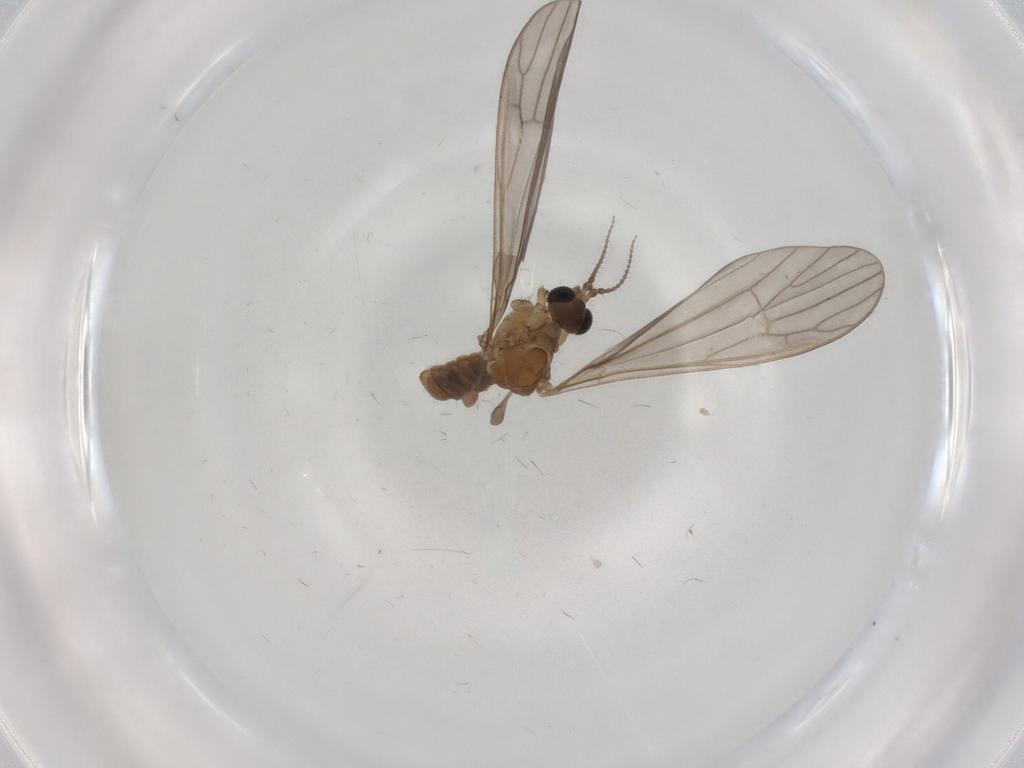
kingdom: Animalia
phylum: Arthropoda
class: Insecta
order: Diptera
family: Limoniidae
